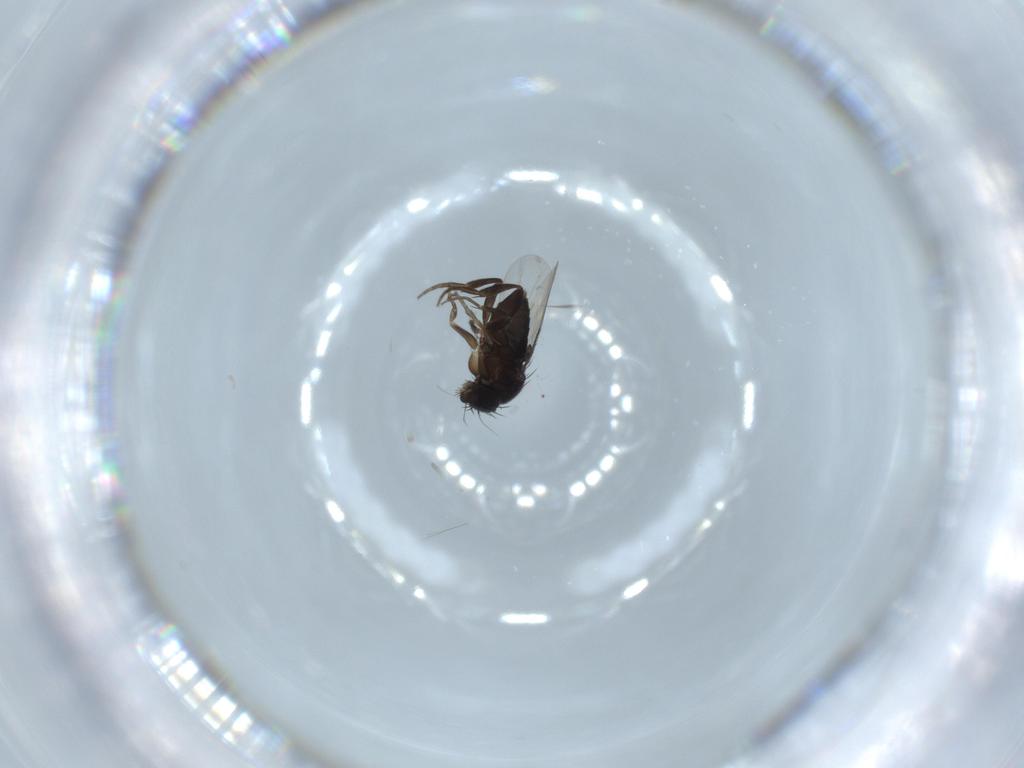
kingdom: Animalia
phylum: Arthropoda
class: Insecta
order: Diptera
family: Phoridae
